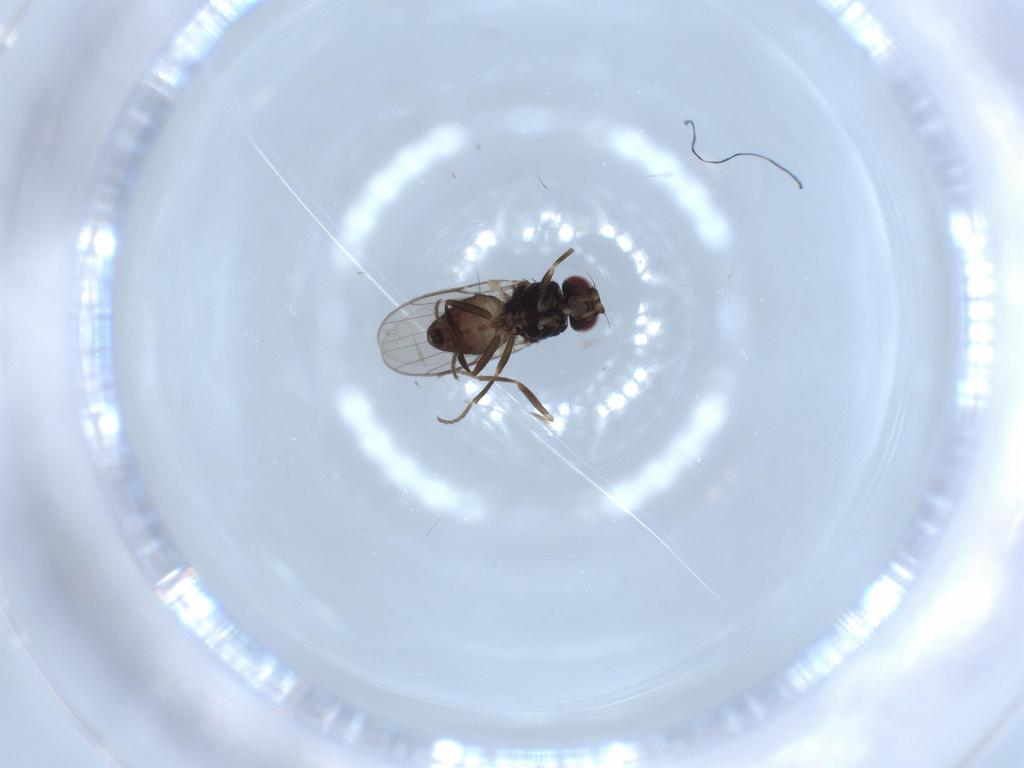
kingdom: Animalia
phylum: Arthropoda
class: Insecta
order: Diptera
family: Chloropidae
